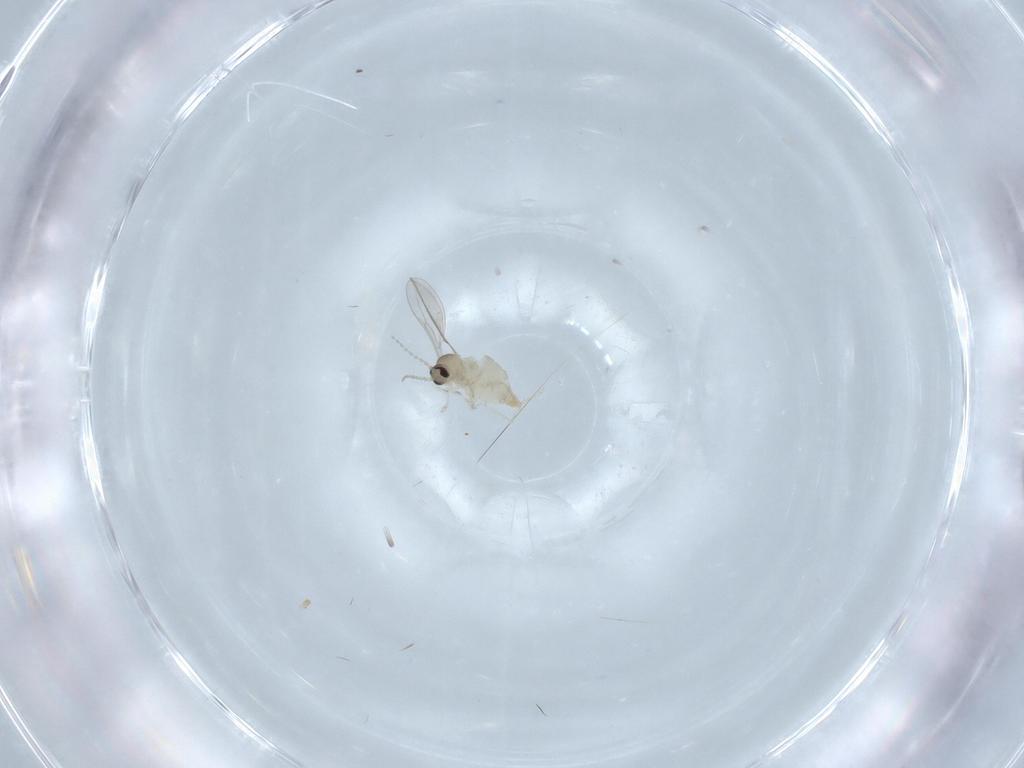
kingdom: Animalia
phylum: Arthropoda
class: Insecta
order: Diptera
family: Cecidomyiidae
